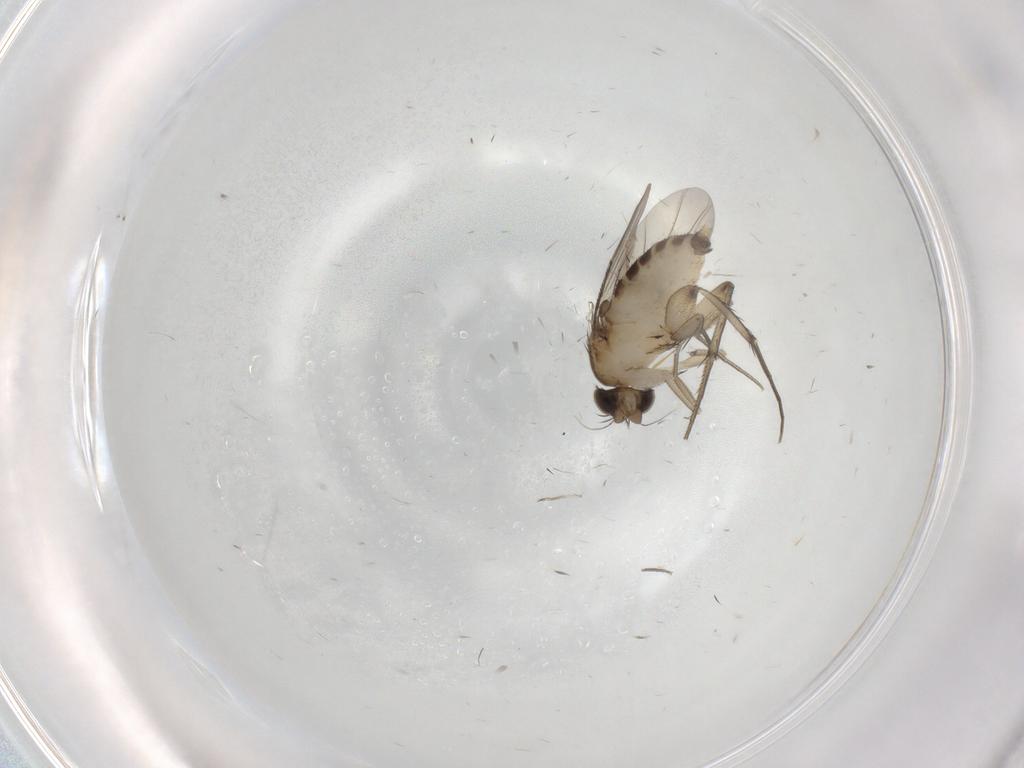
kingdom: Animalia
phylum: Arthropoda
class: Insecta
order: Diptera
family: Phoridae
